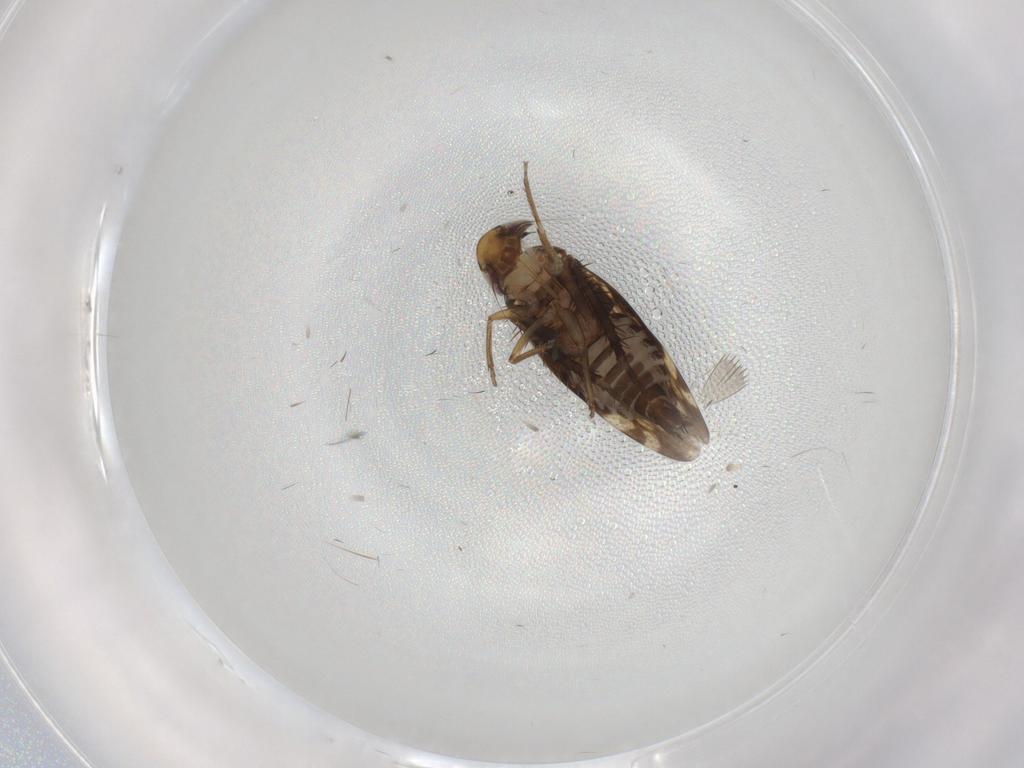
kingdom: Animalia
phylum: Arthropoda
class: Insecta
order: Hemiptera
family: Cicadellidae
